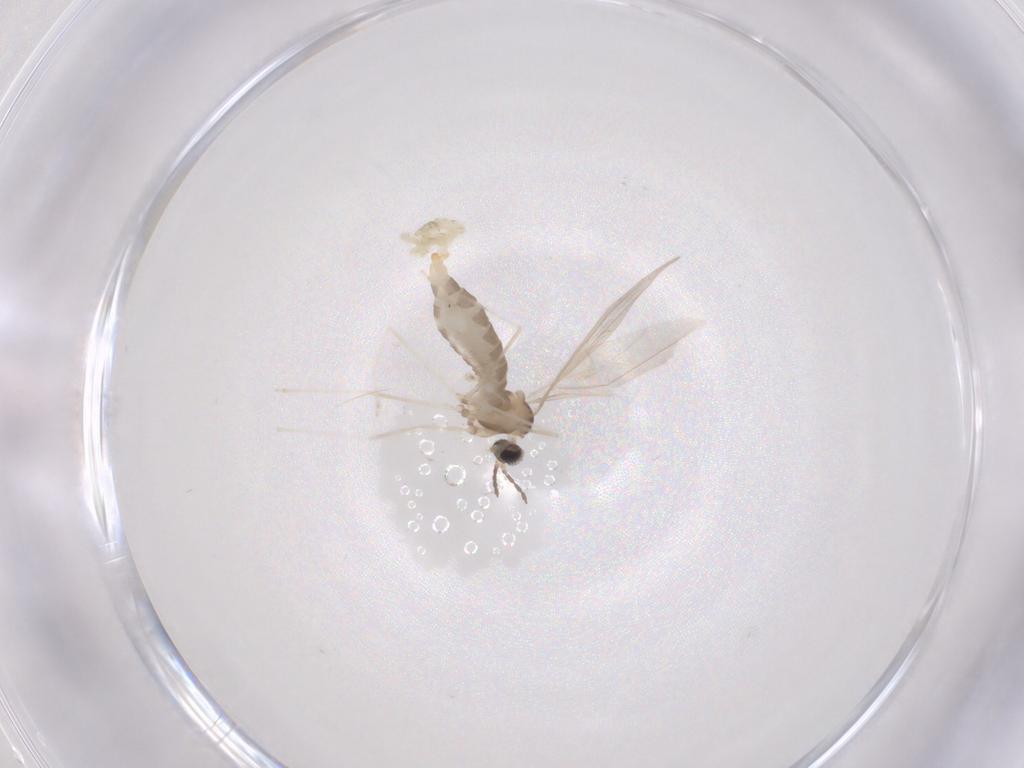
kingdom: Animalia
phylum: Arthropoda
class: Insecta
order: Diptera
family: Cecidomyiidae
